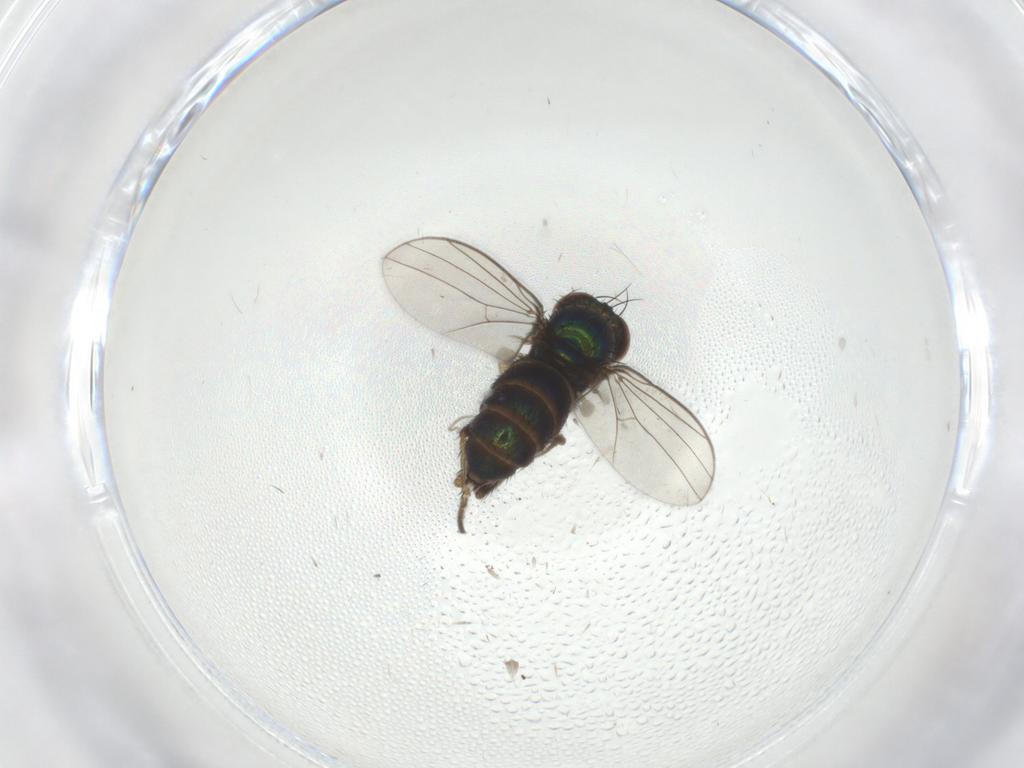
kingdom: Animalia
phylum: Arthropoda
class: Insecta
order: Diptera
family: Dolichopodidae
